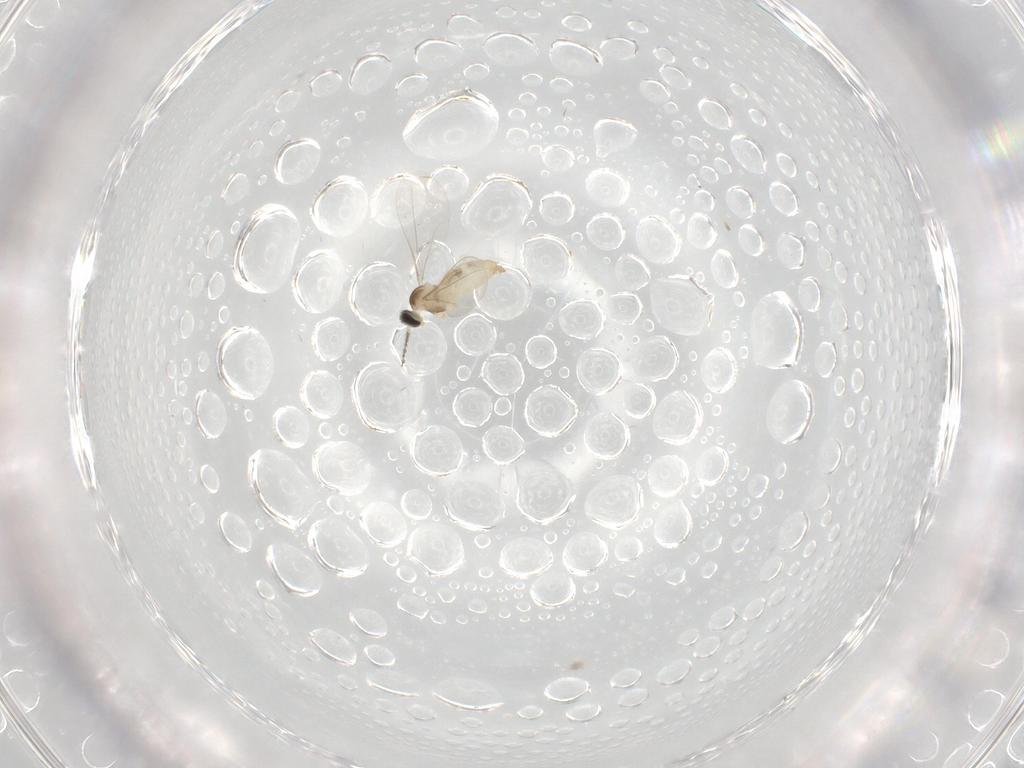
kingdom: Animalia
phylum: Arthropoda
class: Insecta
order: Diptera
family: Cecidomyiidae
